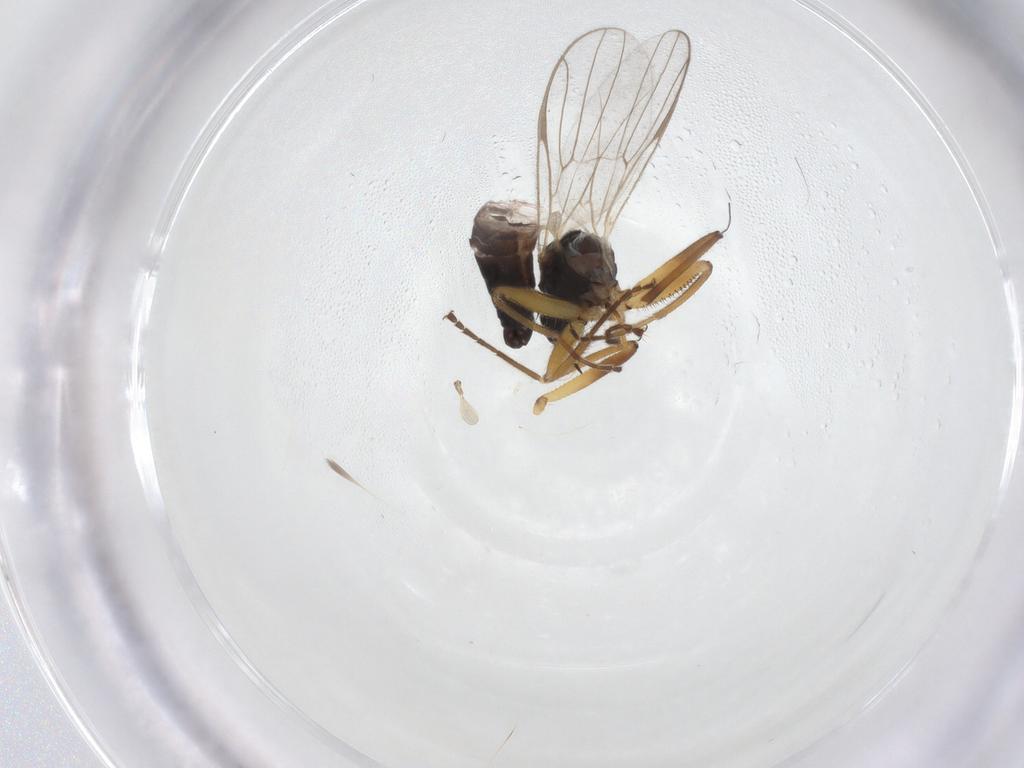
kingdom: Animalia
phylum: Arthropoda
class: Insecta
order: Diptera
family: Hybotidae
